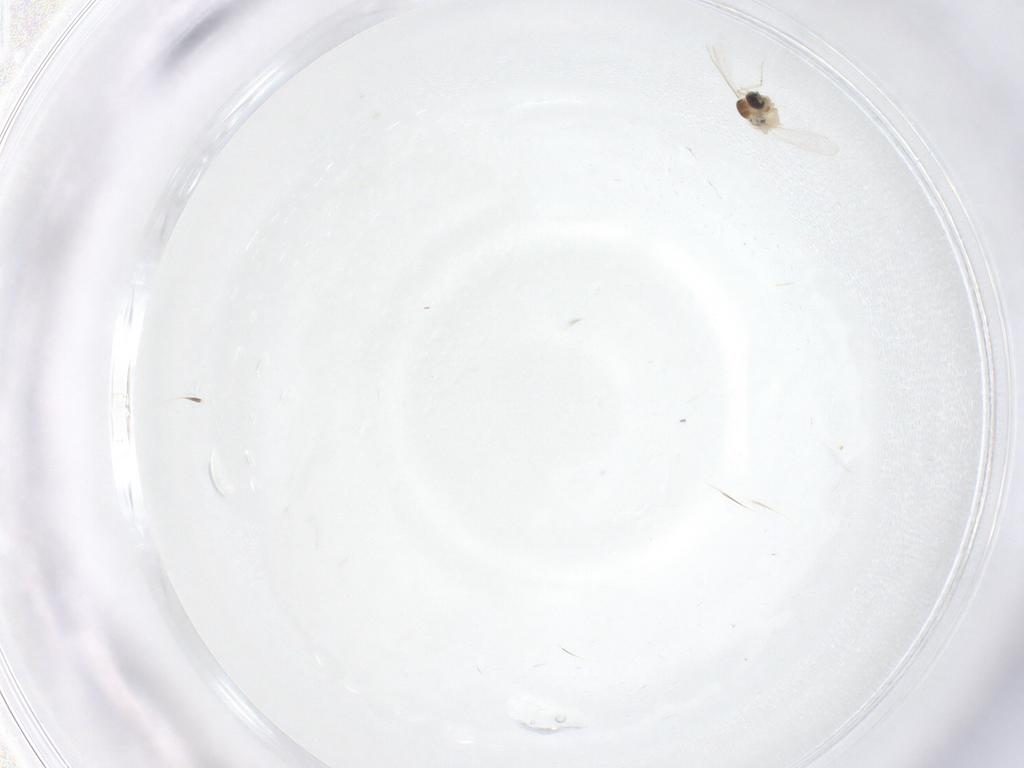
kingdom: Animalia
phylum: Arthropoda
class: Insecta
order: Diptera
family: Cecidomyiidae
